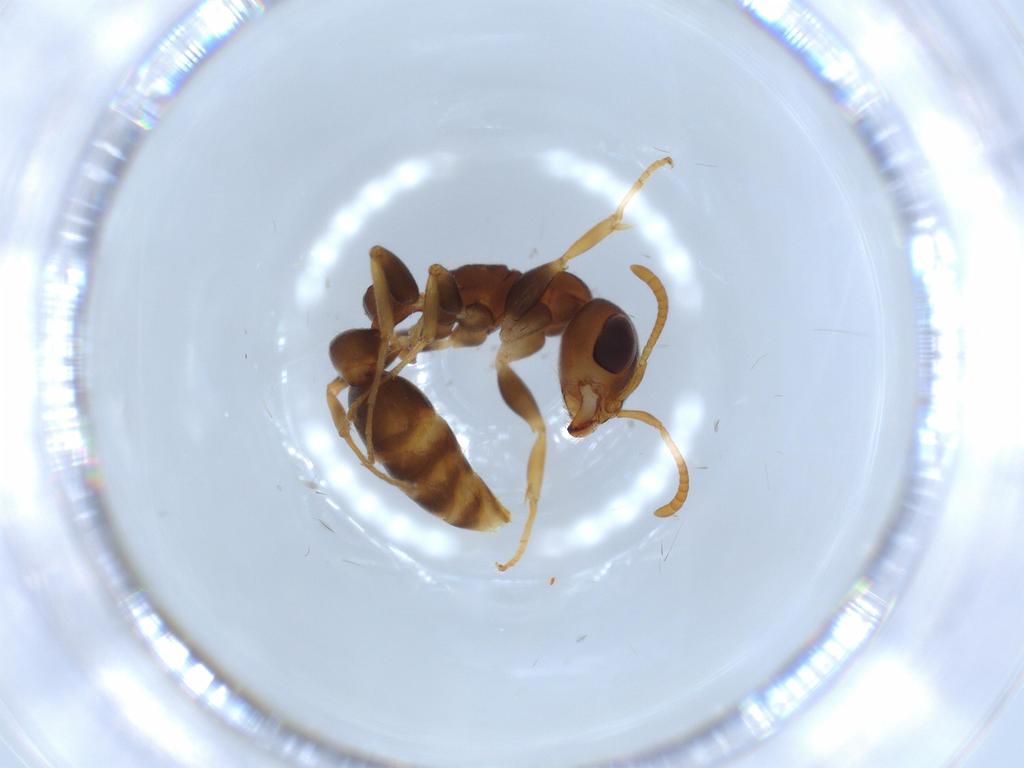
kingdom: Animalia
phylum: Arthropoda
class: Insecta
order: Hymenoptera
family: Formicidae
